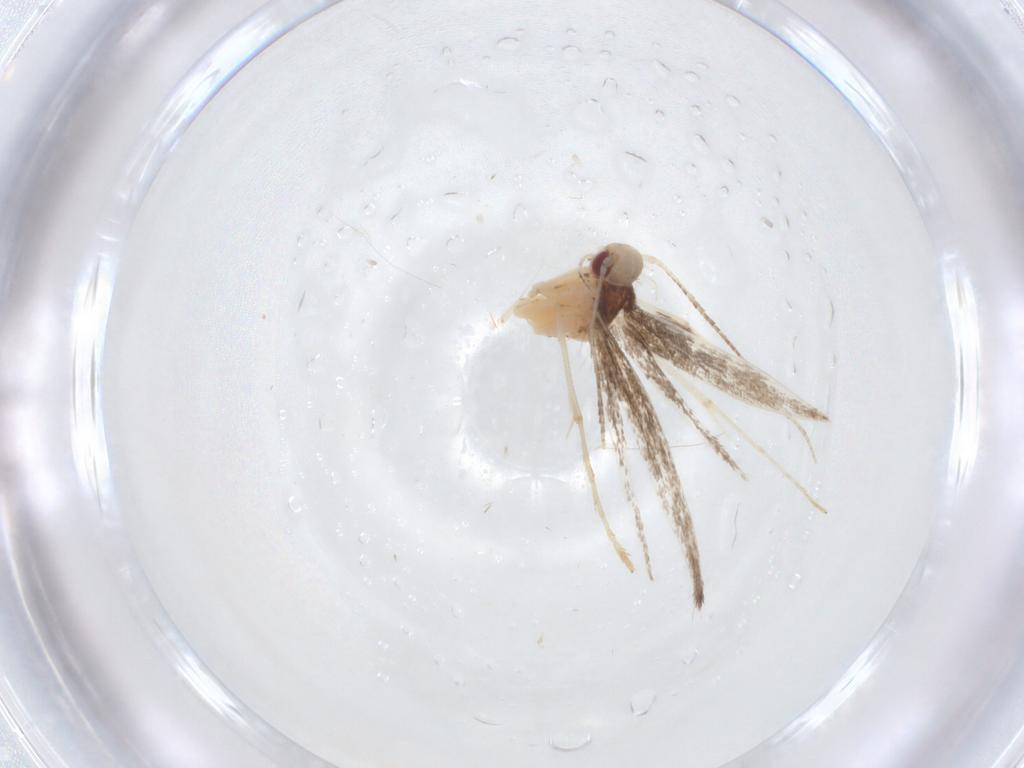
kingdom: Animalia
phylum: Arthropoda
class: Insecta
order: Lepidoptera
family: Gracillariidae
